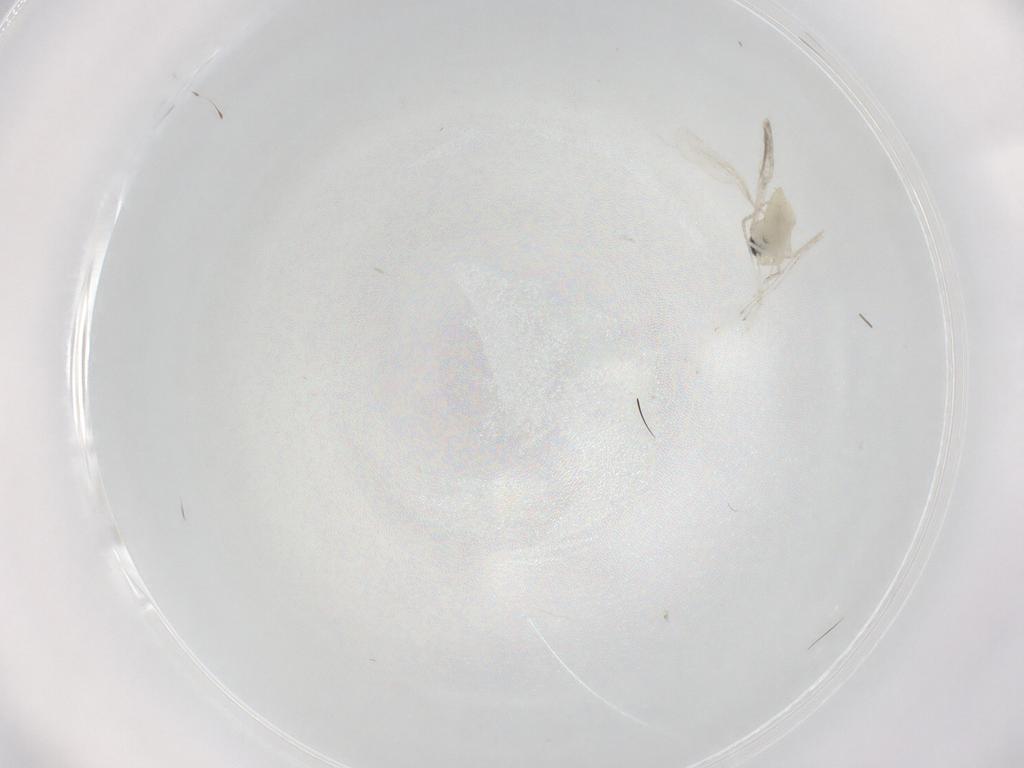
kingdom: Animalia
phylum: Arthropoda
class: Insecta
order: Diptera
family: Cecidomyiidae
